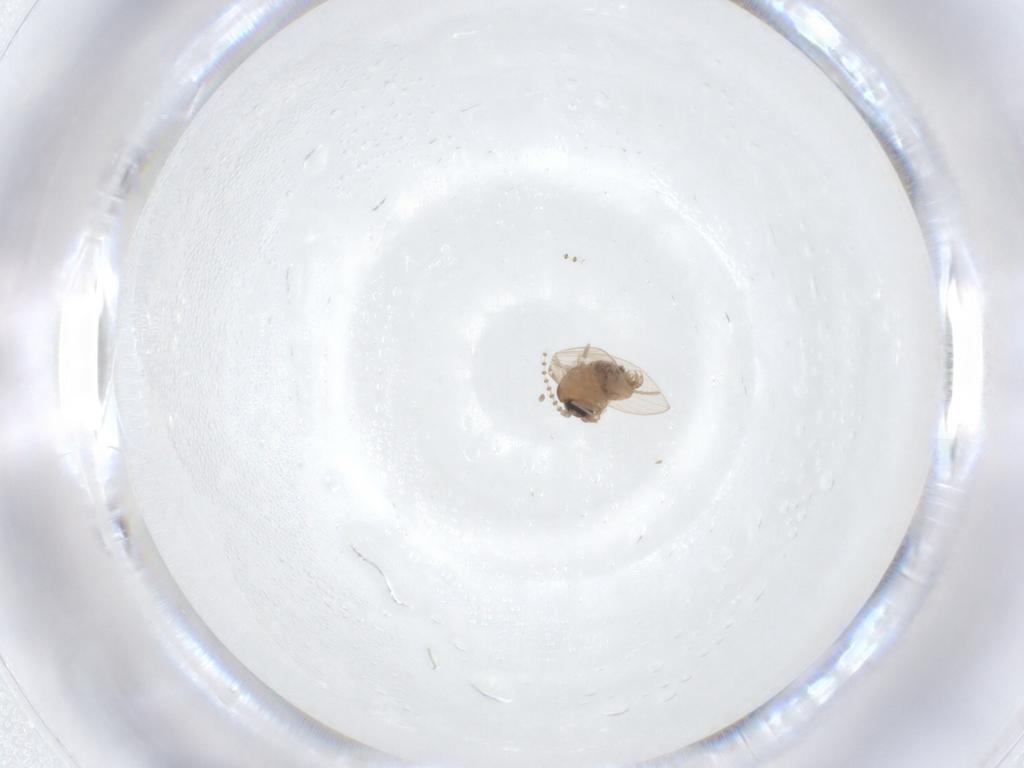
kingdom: Animalia
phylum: Arthropoda
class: Insecta
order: Diptera
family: Psychodidae
